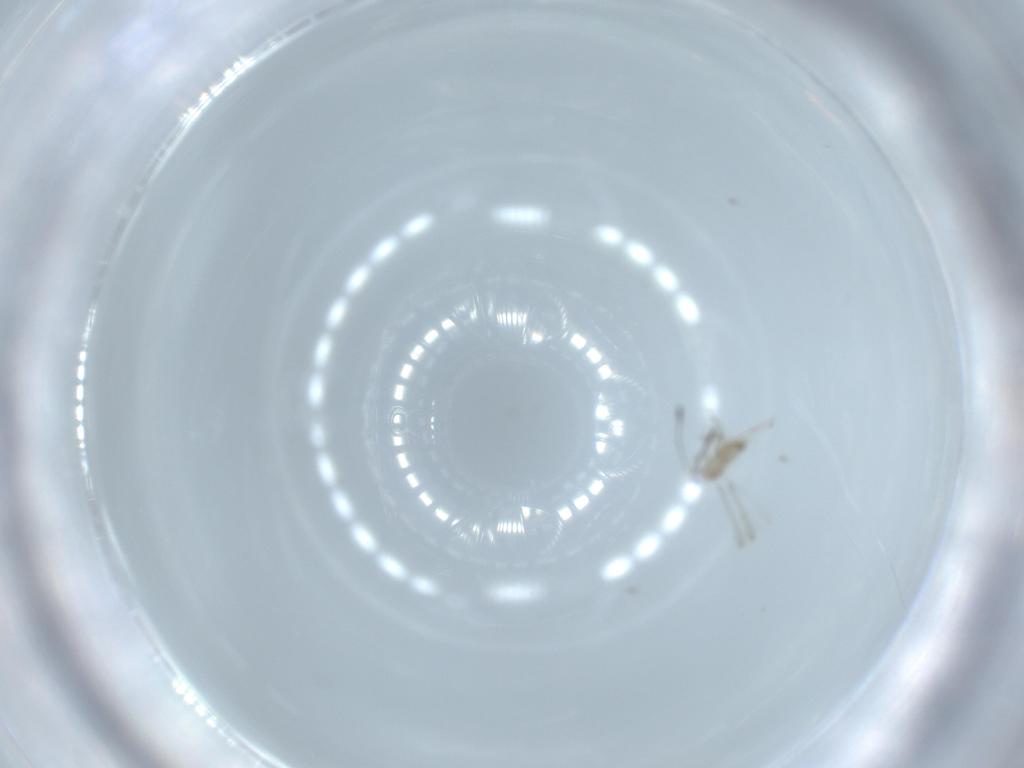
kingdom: Animalia
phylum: Arthropoda
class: Insecta
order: Hymenoptera
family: Mymaridae
